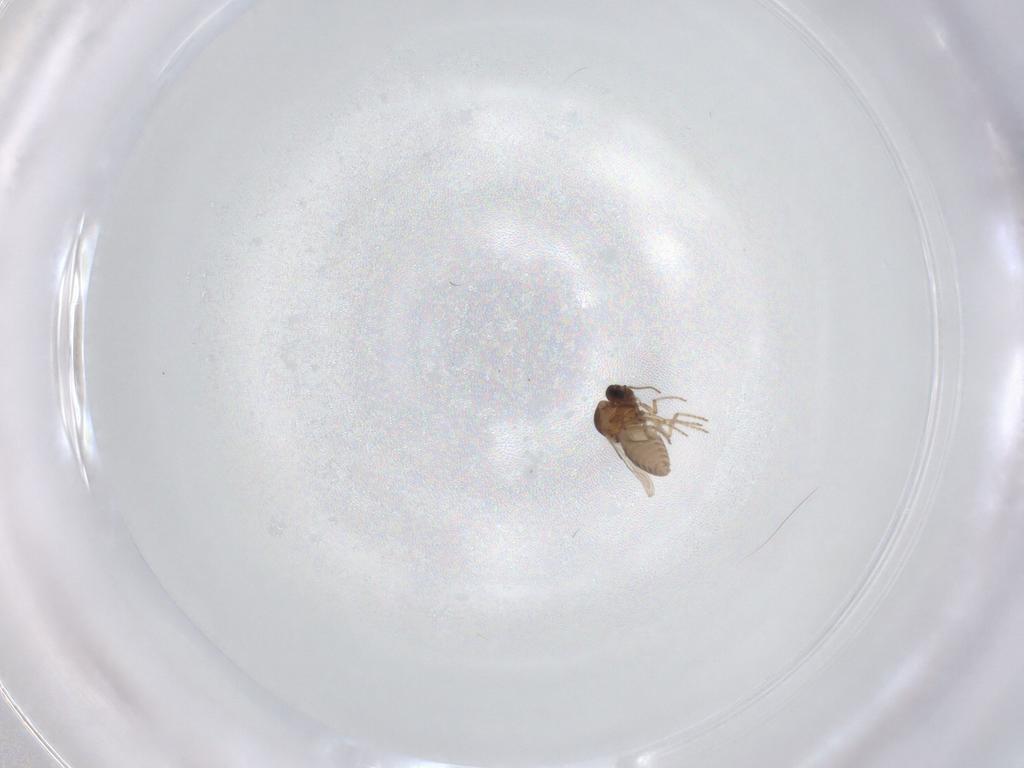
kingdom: Animalia
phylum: Arthropoda
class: Insecta
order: Diptera
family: Ceratopogonidae
